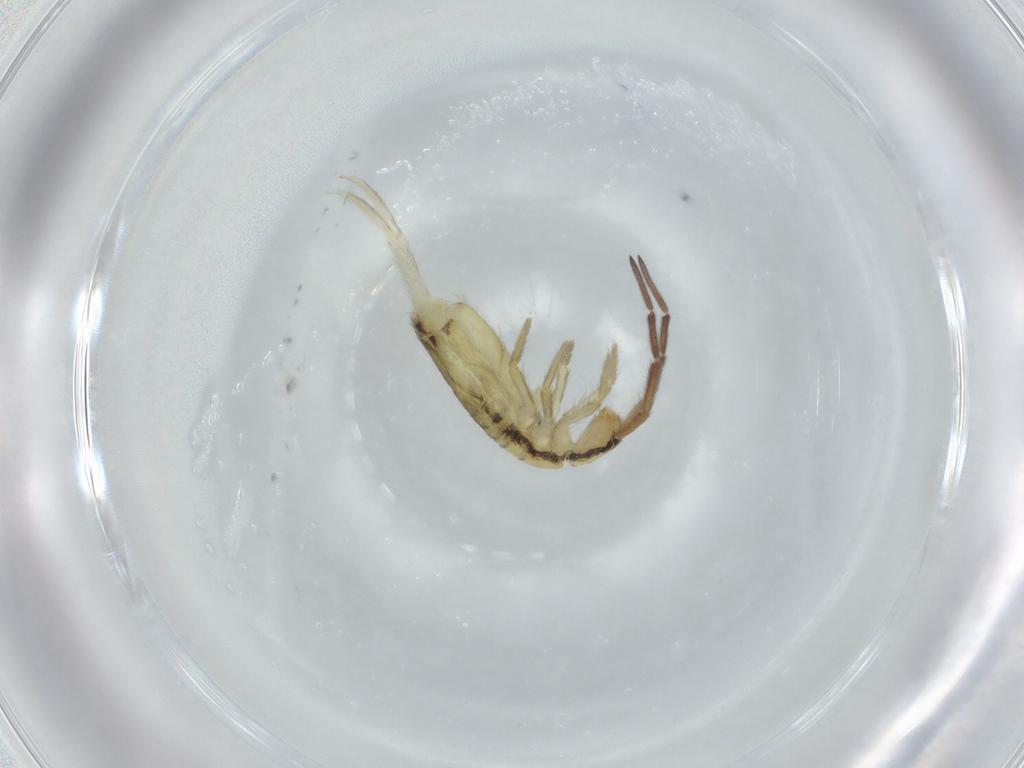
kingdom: Animalia
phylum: Arthropoda
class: Collembola
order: Entomobryomorpha
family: Entomobryidae
